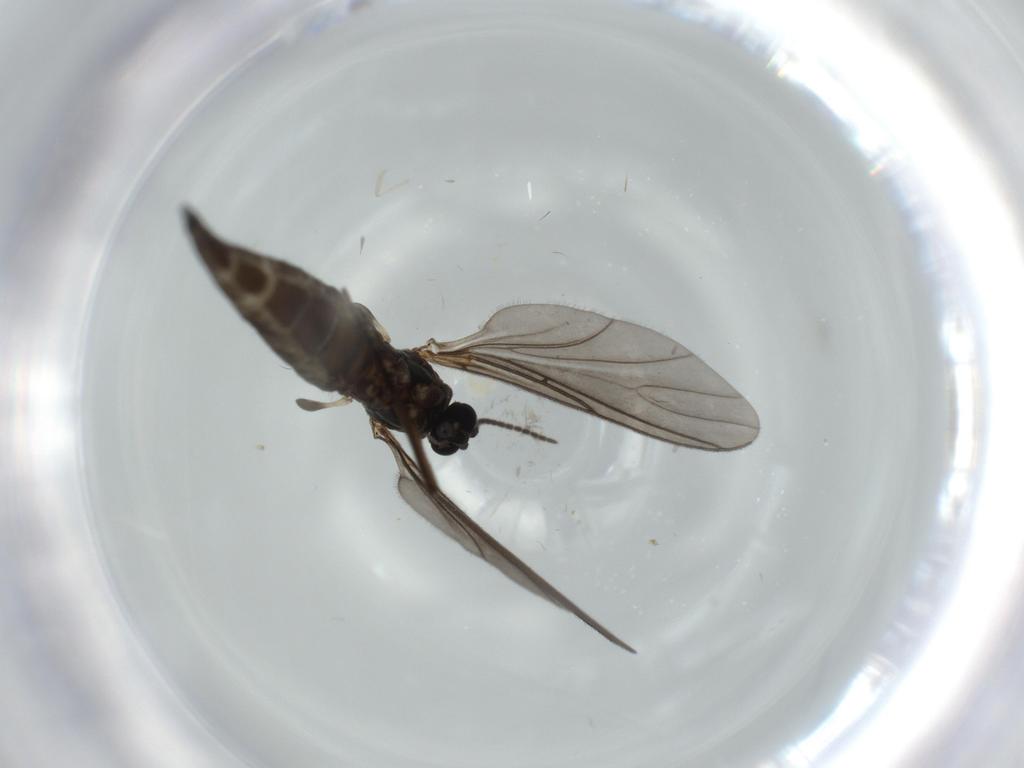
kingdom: Animalia
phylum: Arthropoda
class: Insecta
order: Diptera
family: Sciaridae
